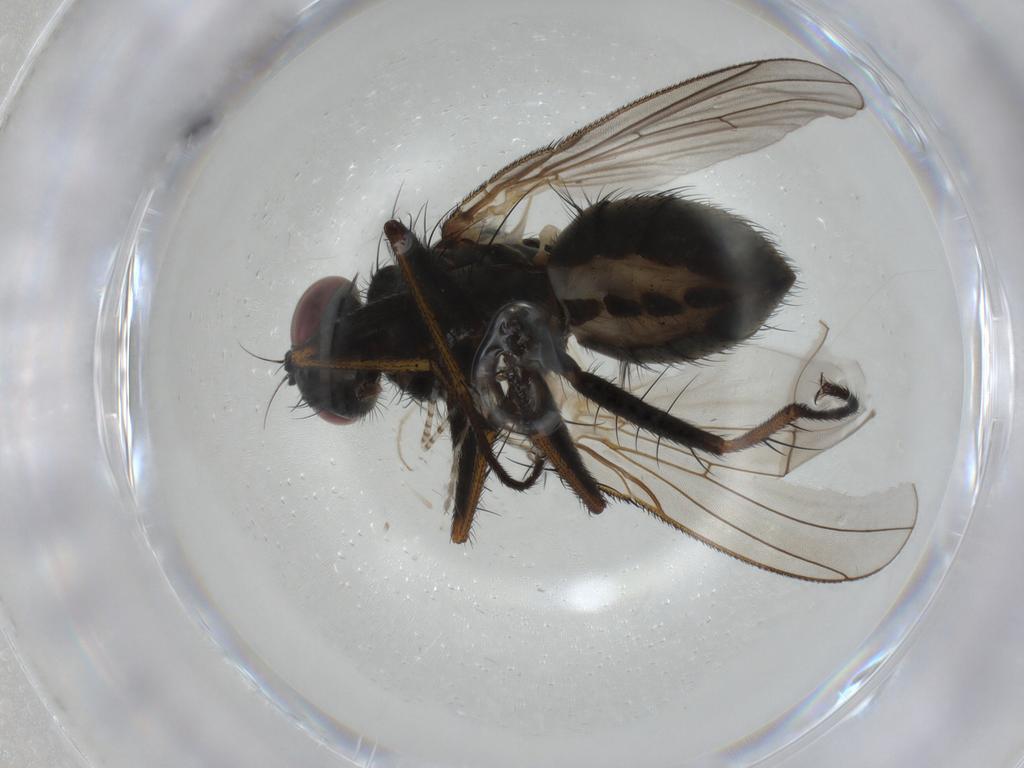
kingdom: Animalia
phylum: Arthropoda
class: Insecta
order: Diptera
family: Muscidae
